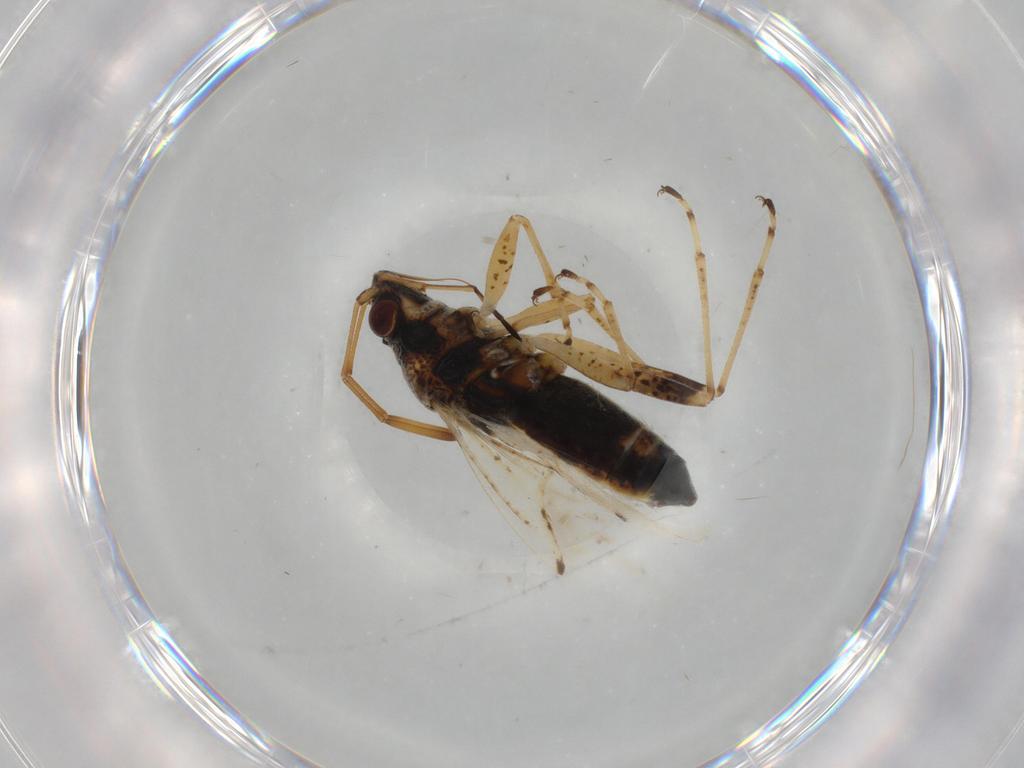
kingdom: Animalia
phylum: Arthropoda
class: Insecta
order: Hemiptera
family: Lygaeidae
